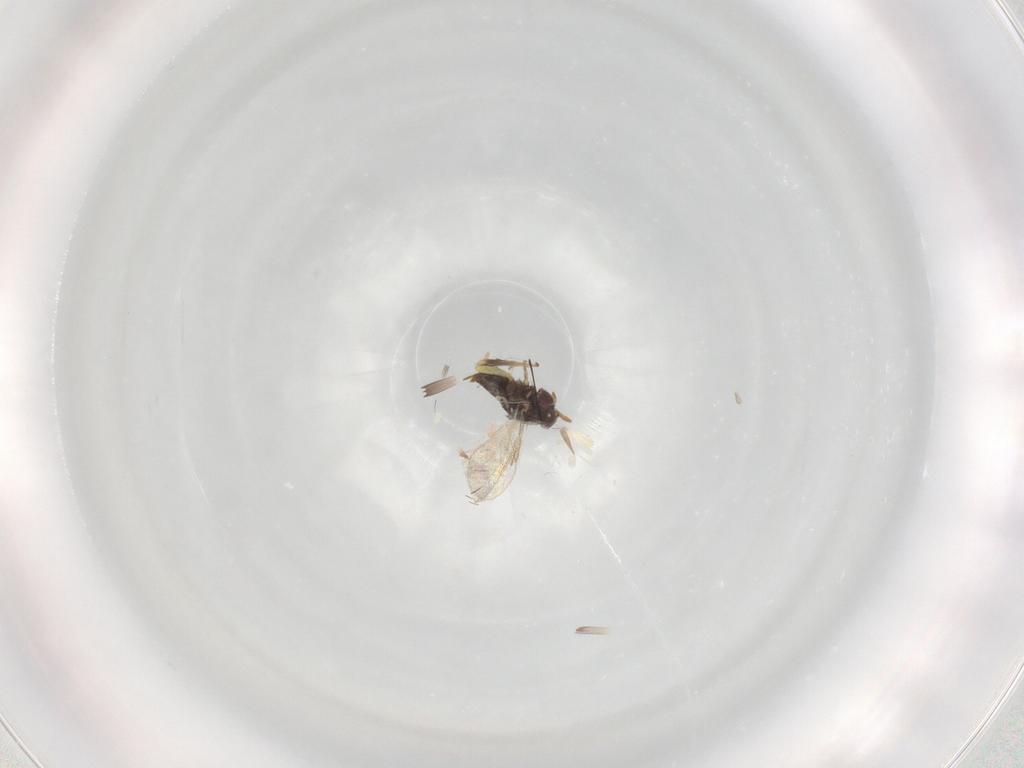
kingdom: Animalia
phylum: Arthropoda
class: Insecta
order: Hymenoptera
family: Aphelinidae
